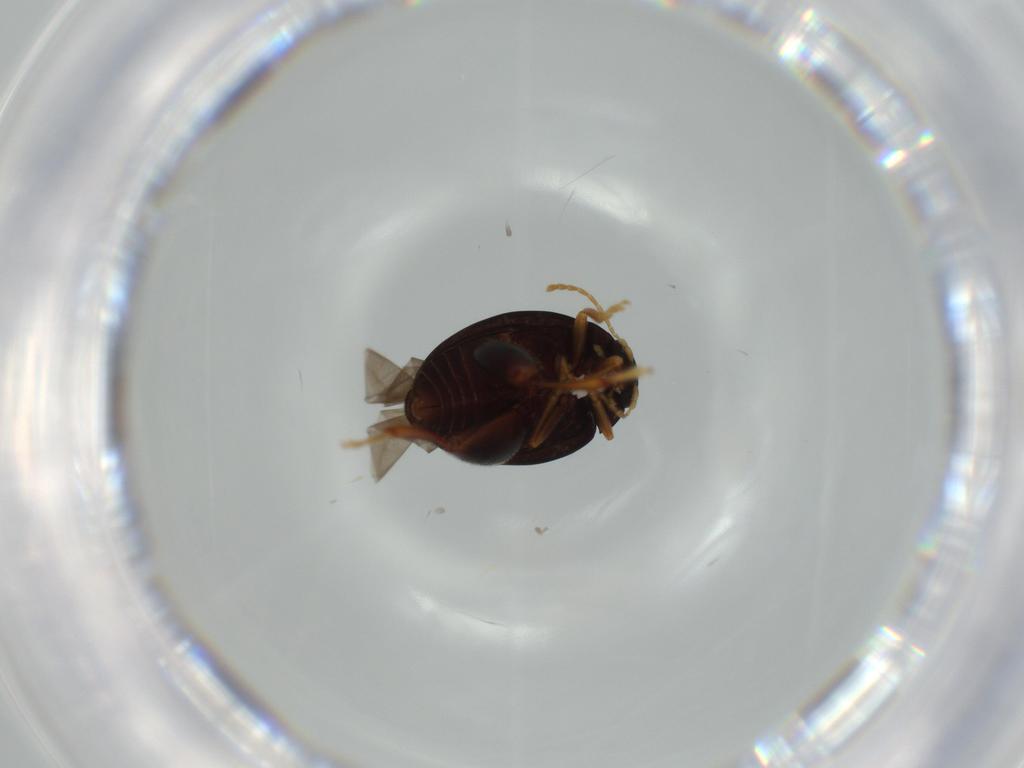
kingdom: Animalia
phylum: Arthropoda
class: Insecta
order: Coleoptera
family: Chrysomelidae
